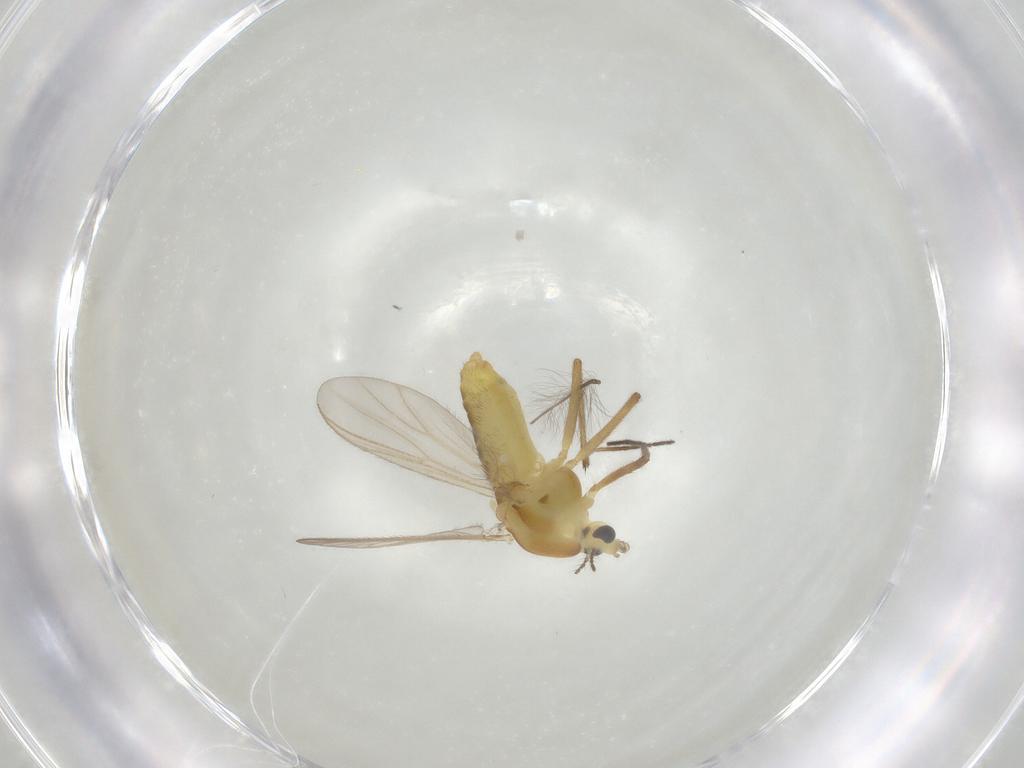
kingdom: Animalia
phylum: Arthropoda
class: Insecta
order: Diptera
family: Chironomidae
